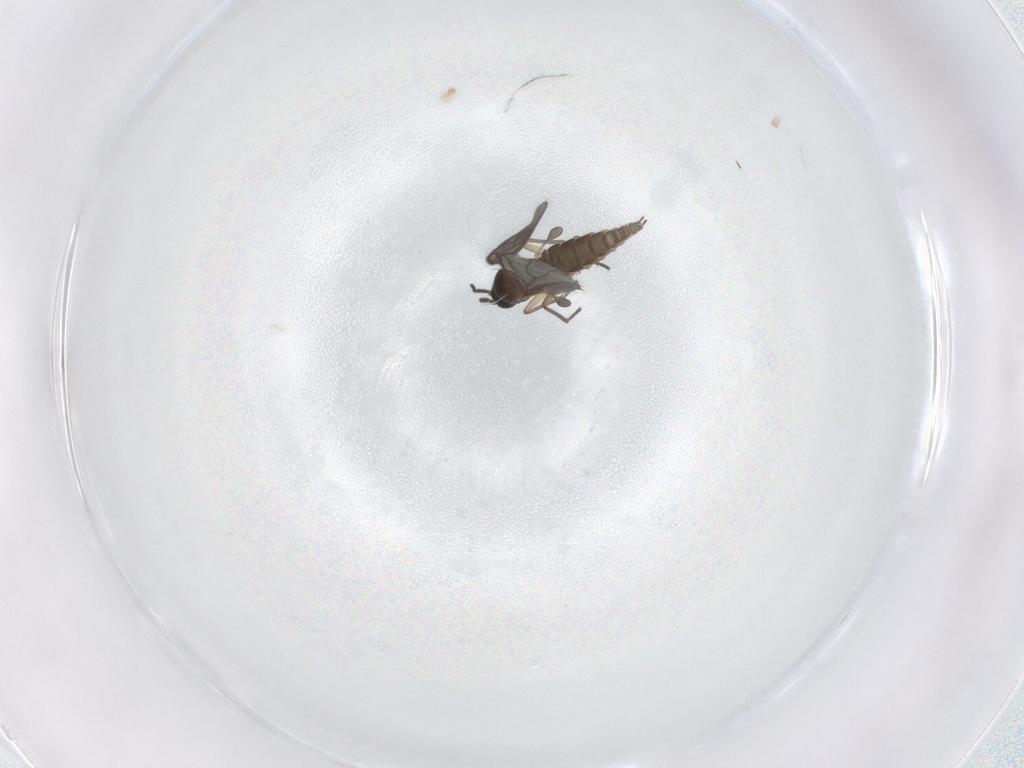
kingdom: Animalia
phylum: Arthropoda
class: Insecta
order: Diptera
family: Sciaridae
